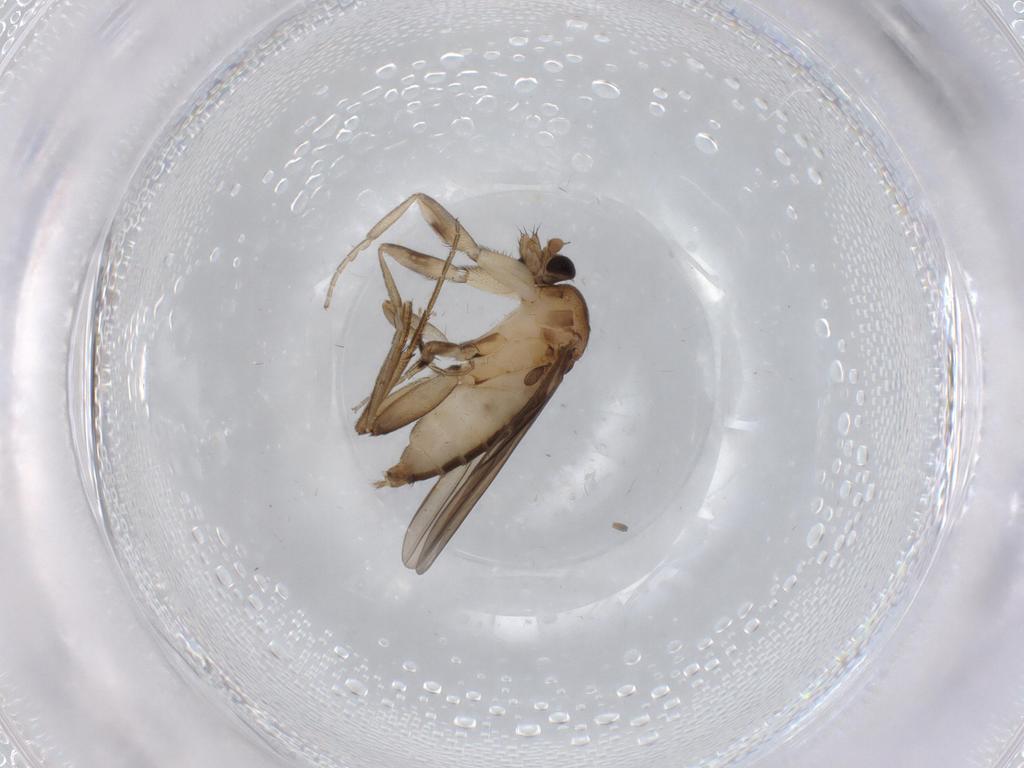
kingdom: Animalia
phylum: Arthropoda
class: Insecta
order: Diptera
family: Phoridae
